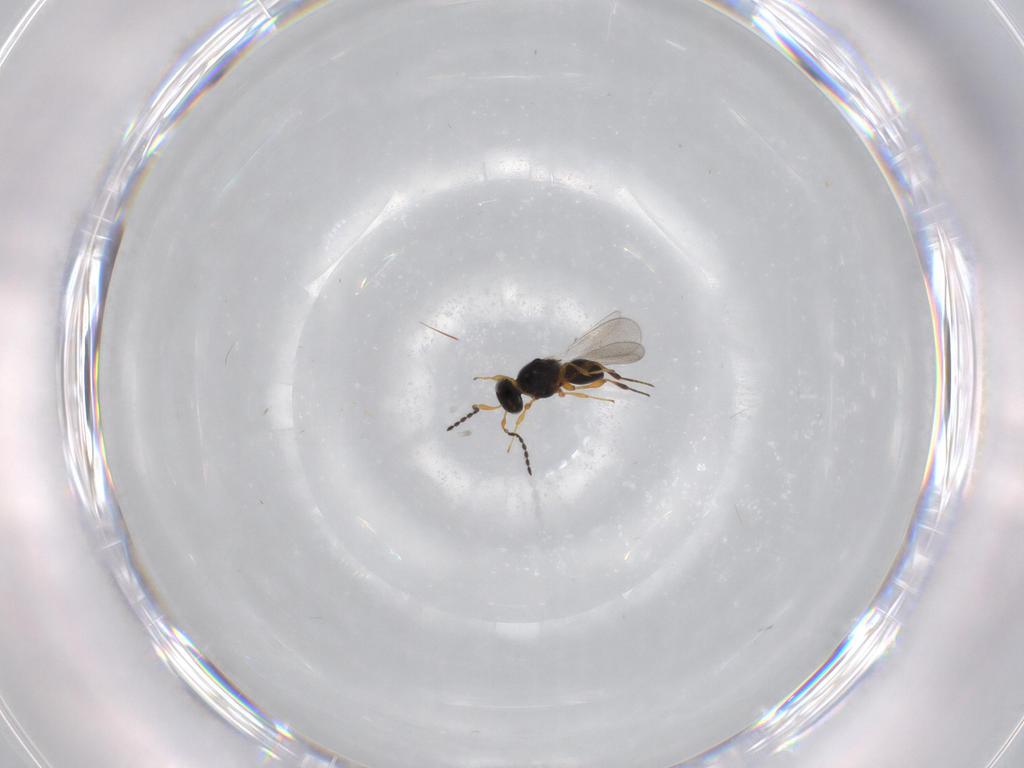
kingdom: Animalia
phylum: Arthropoda
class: Insecta
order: Hymenoptera
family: Platygastridae
